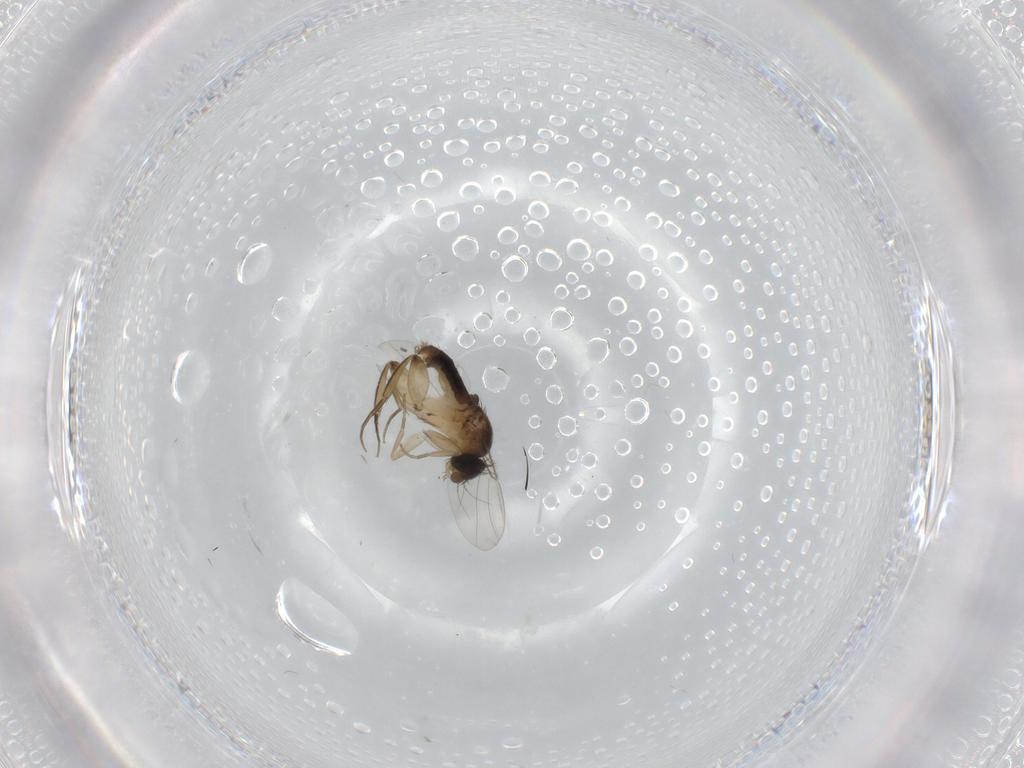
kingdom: Animalia
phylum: Arthropoda
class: Insecta
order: Diptera
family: Phoridae
